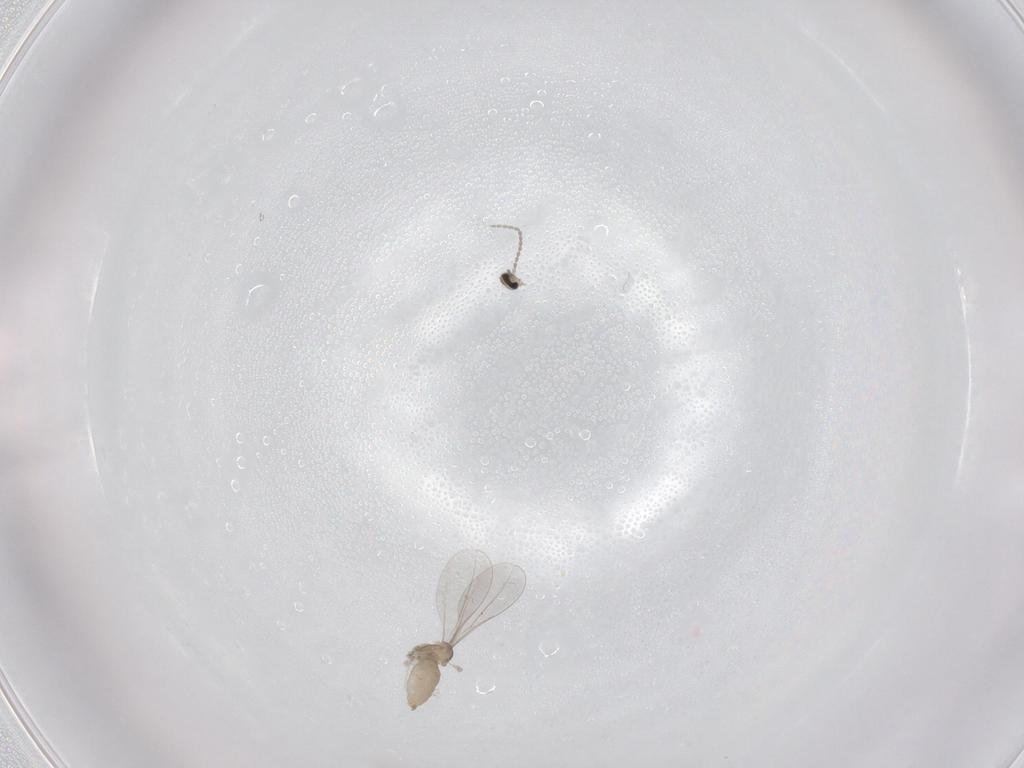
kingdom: Animalia
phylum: Arthropoda
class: Insecta
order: Diptera
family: Cecidomyiidae
